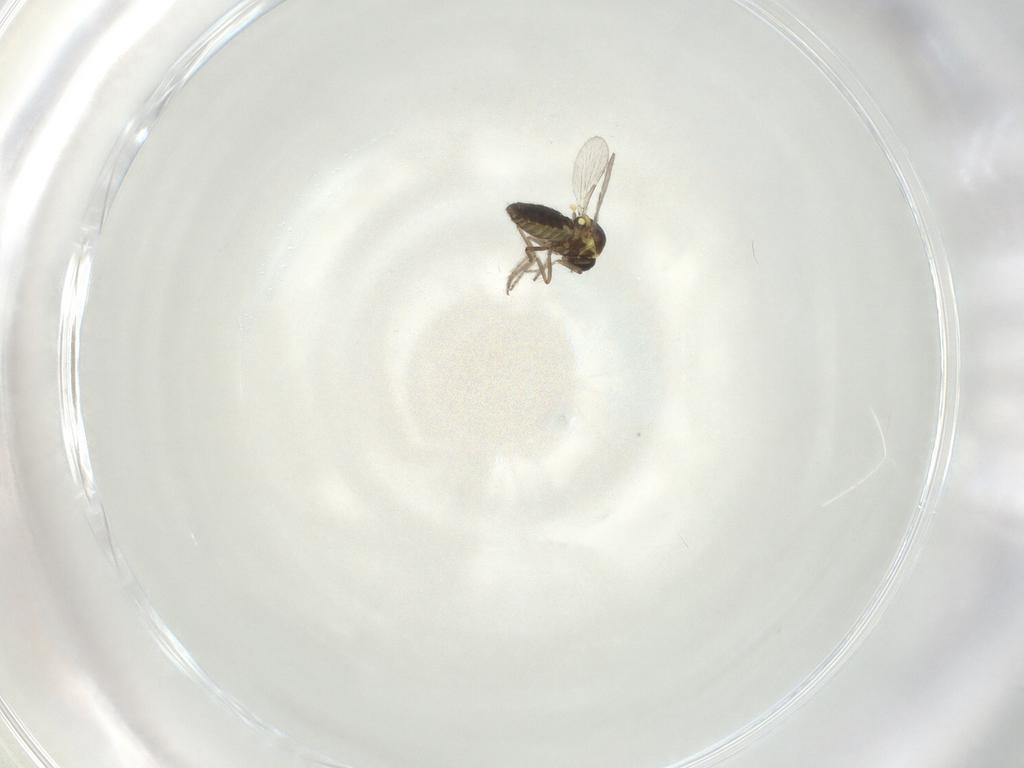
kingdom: Animalia
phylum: Arthropoda
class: Insecta
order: Diptera
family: Ceratopogonidae
